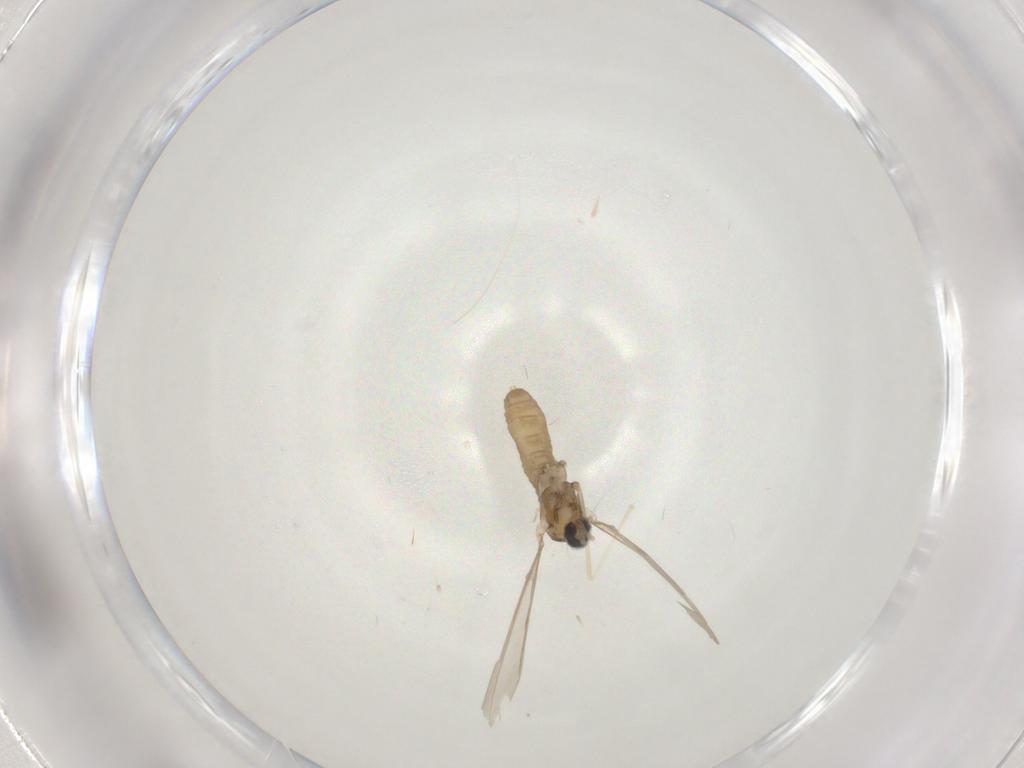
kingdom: Animalia
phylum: Arthropoda
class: Insecta
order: Diptera
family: Cecidomyiidae
